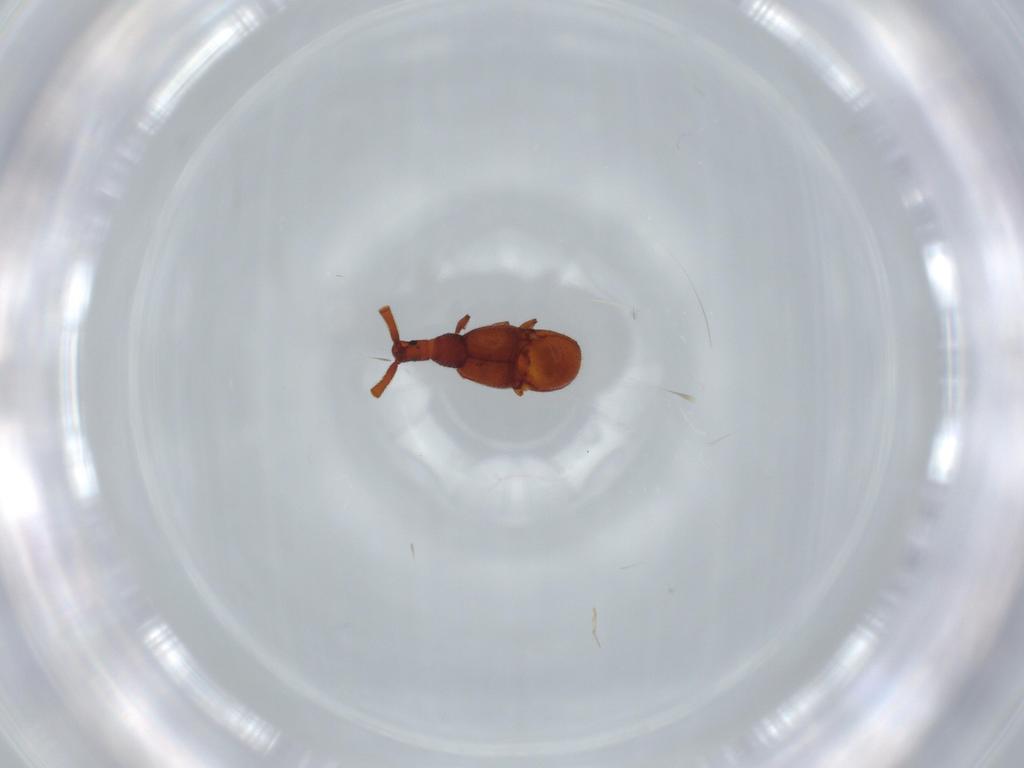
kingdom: Animalia
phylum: Arthropoda
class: Insecta
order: Coleoptera
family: Staphylinidae
